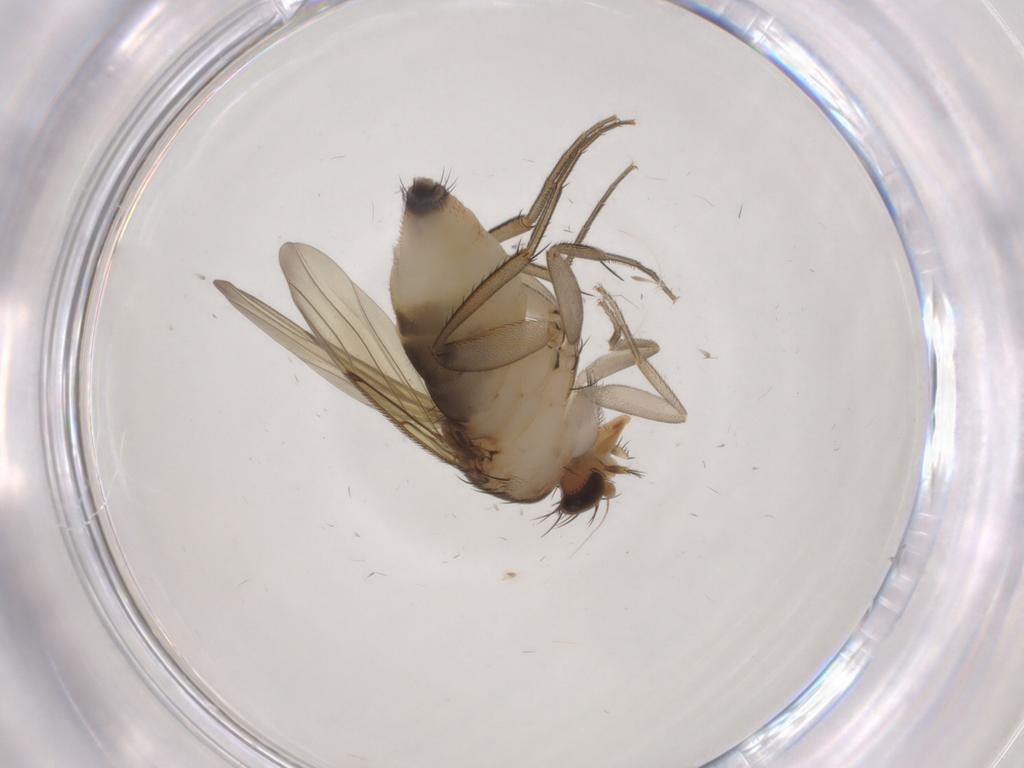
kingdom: Animalia
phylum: Arthropoda
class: Insecta
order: Diptera
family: Phoridae
